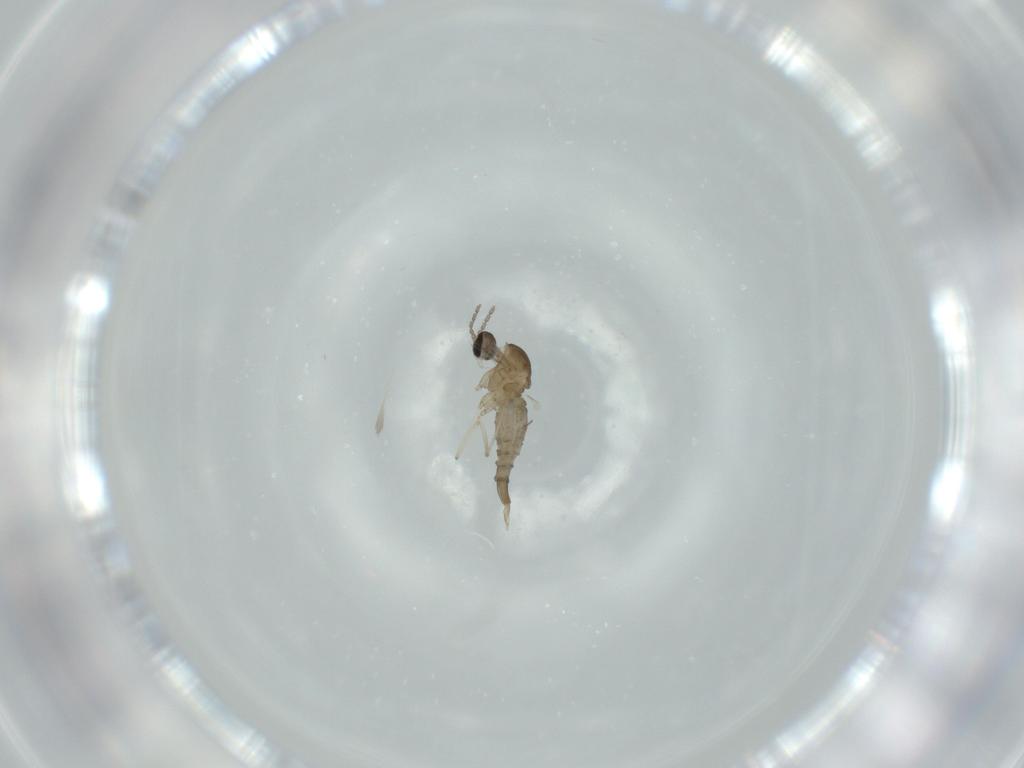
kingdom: Animalia
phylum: Arthropoda
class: Insecta
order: Diptera
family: Cecidomyiidae
